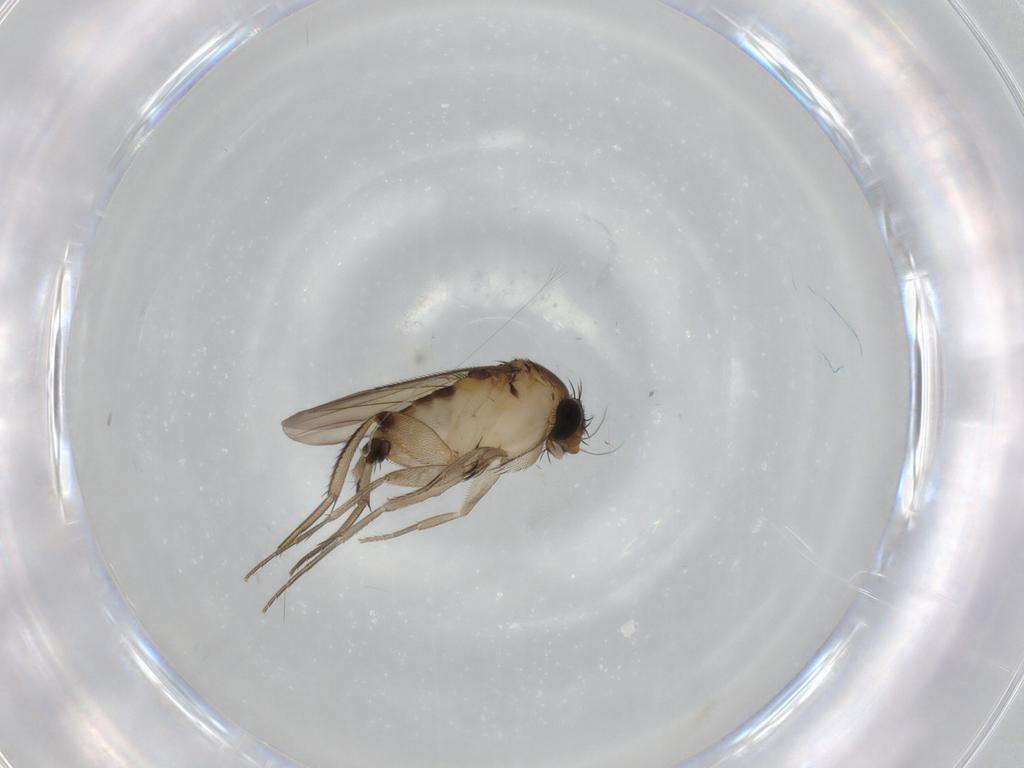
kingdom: Animalia
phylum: Arthropoda
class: Insecta
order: Diptera
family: Phoridae
